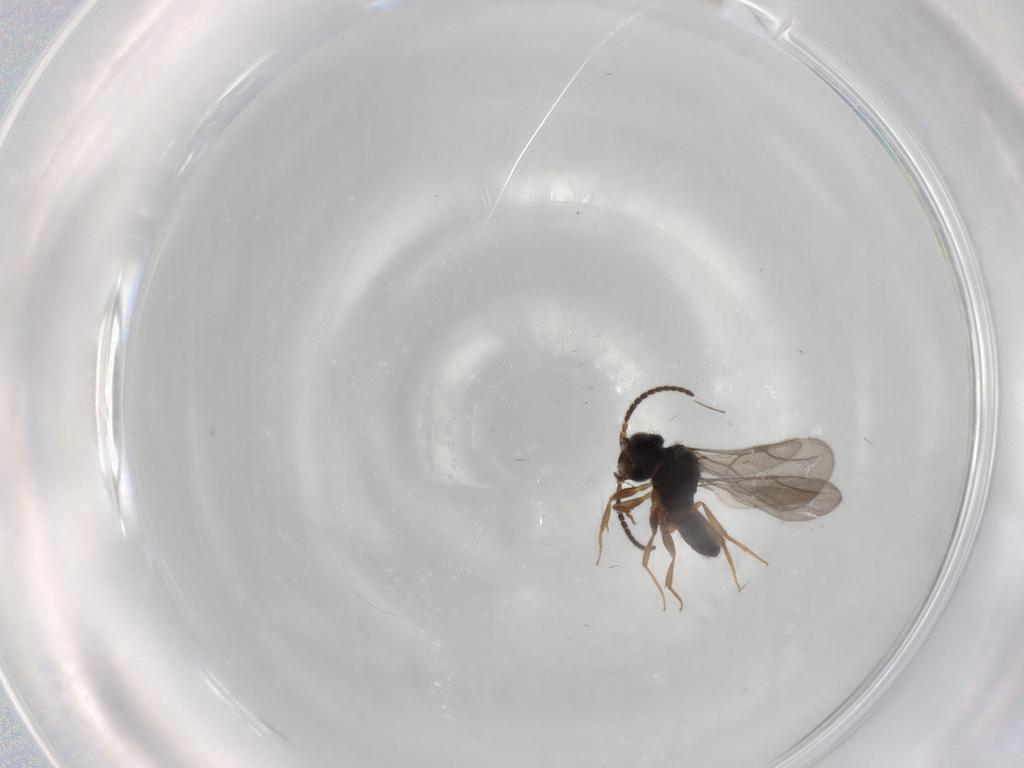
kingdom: Animalia
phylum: Arthropoda
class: Insecta
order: Hymenoptera
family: Bethylidae
